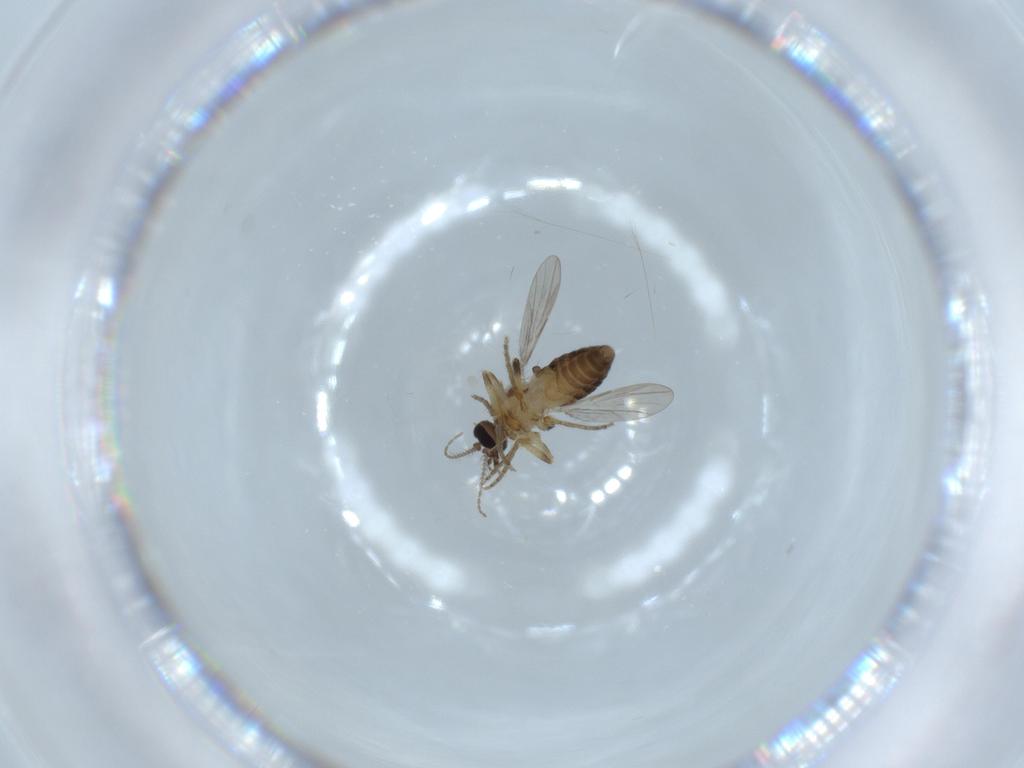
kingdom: Animalia
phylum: Arthropoda
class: Insecta
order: Diptera
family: Ceratopogonidae
